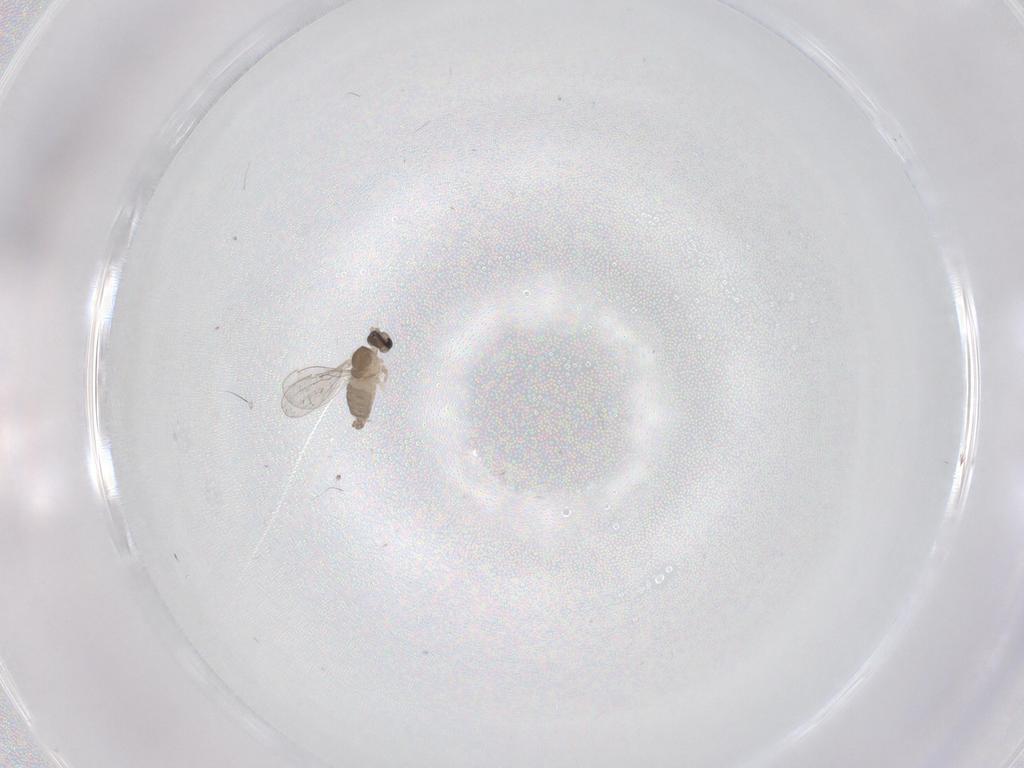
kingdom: Animalia
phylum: Arthropoda
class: Insecta
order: Diptera
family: Cecidomyiidae
